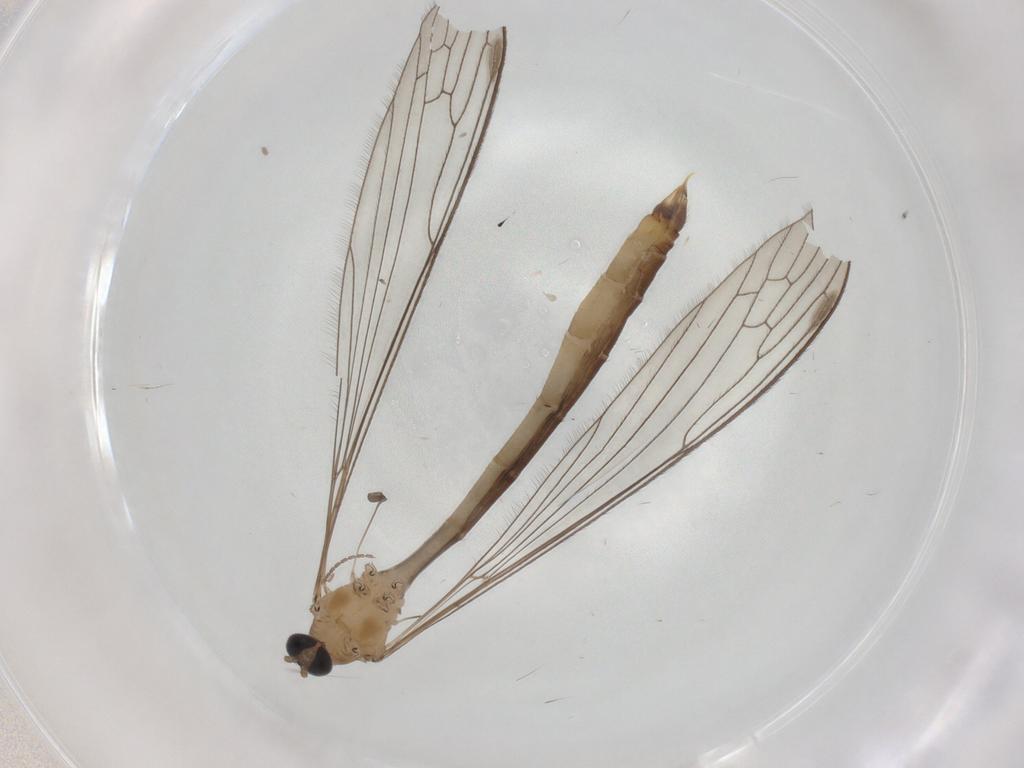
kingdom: Animalia
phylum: Arthropoda
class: Insecta
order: Diptera
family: Limoniidae
